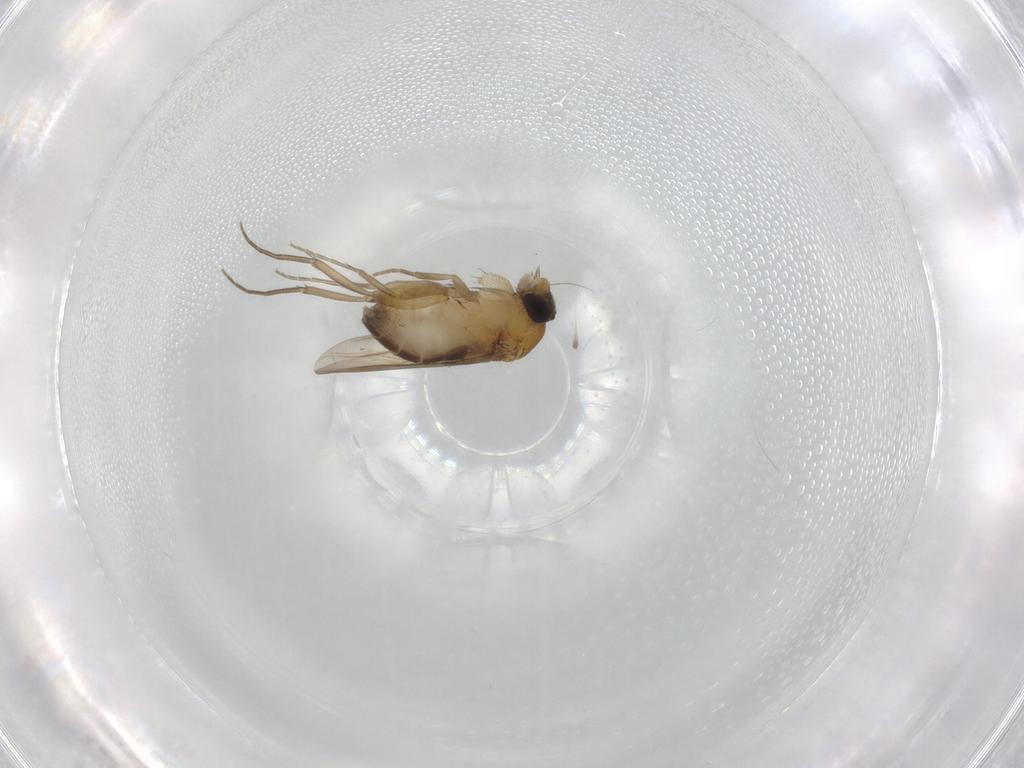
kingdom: Animalia
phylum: Arthropoda
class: Insecta
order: Diptera
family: Phoridae
